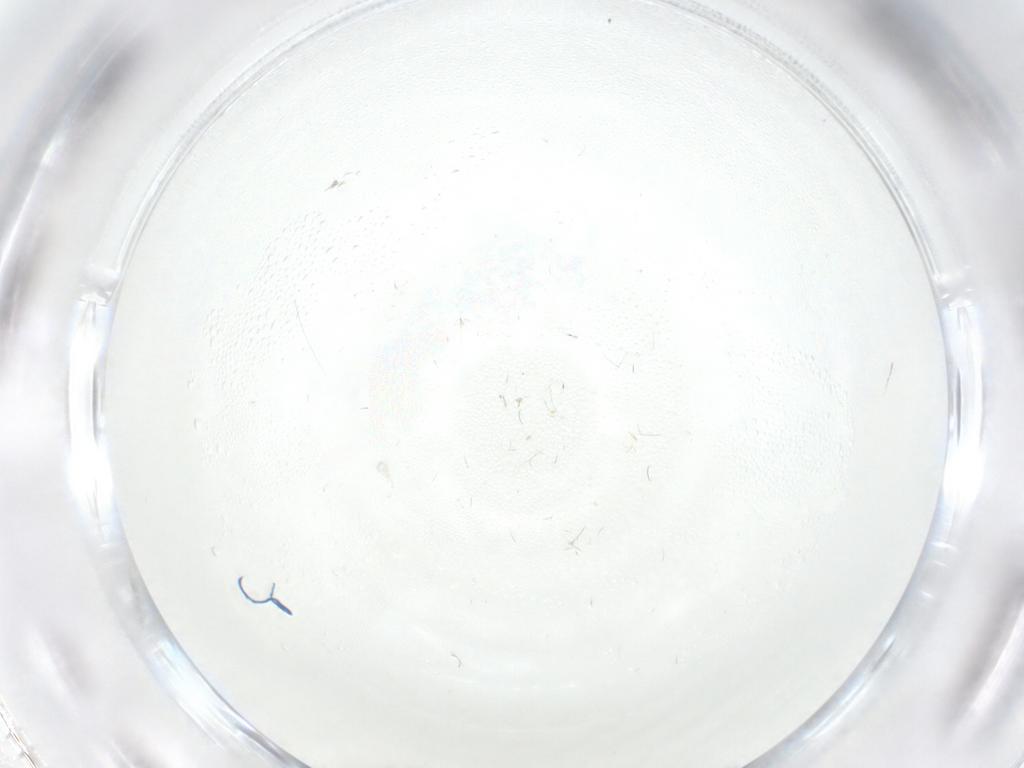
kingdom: Animalia
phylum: Arthropoda
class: Insecta
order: Diptera
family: Cecidomyiidae
